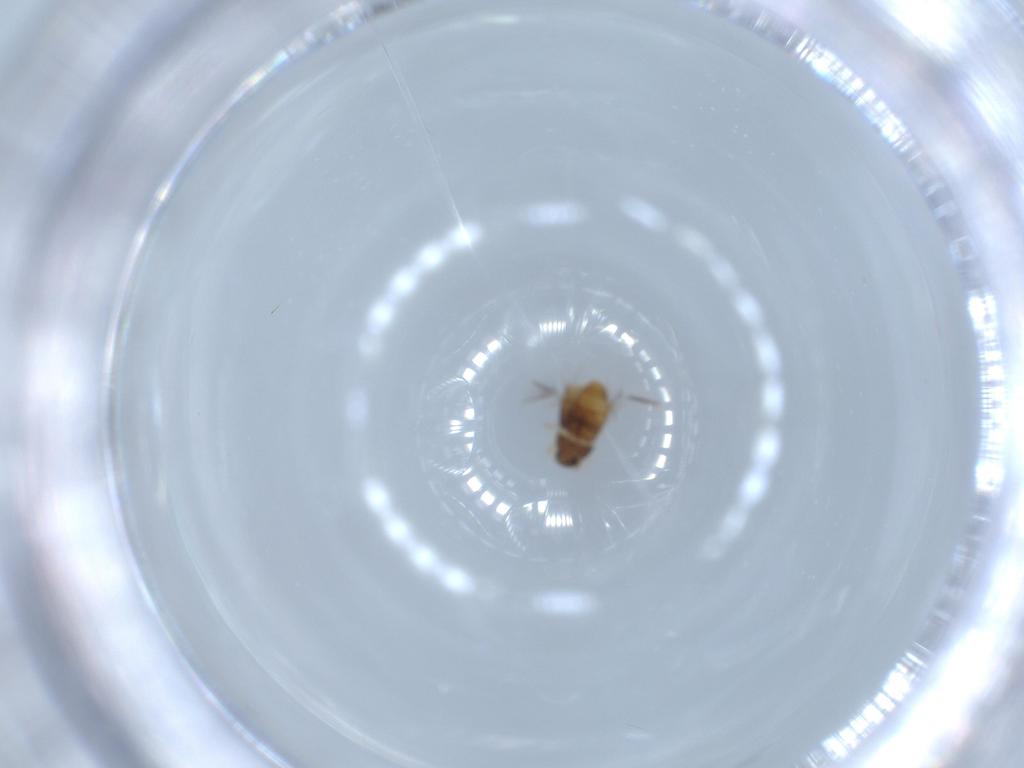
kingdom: Animalia
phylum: Arthropoda
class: Insecta
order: Coleoptera
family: Ptiliidae
